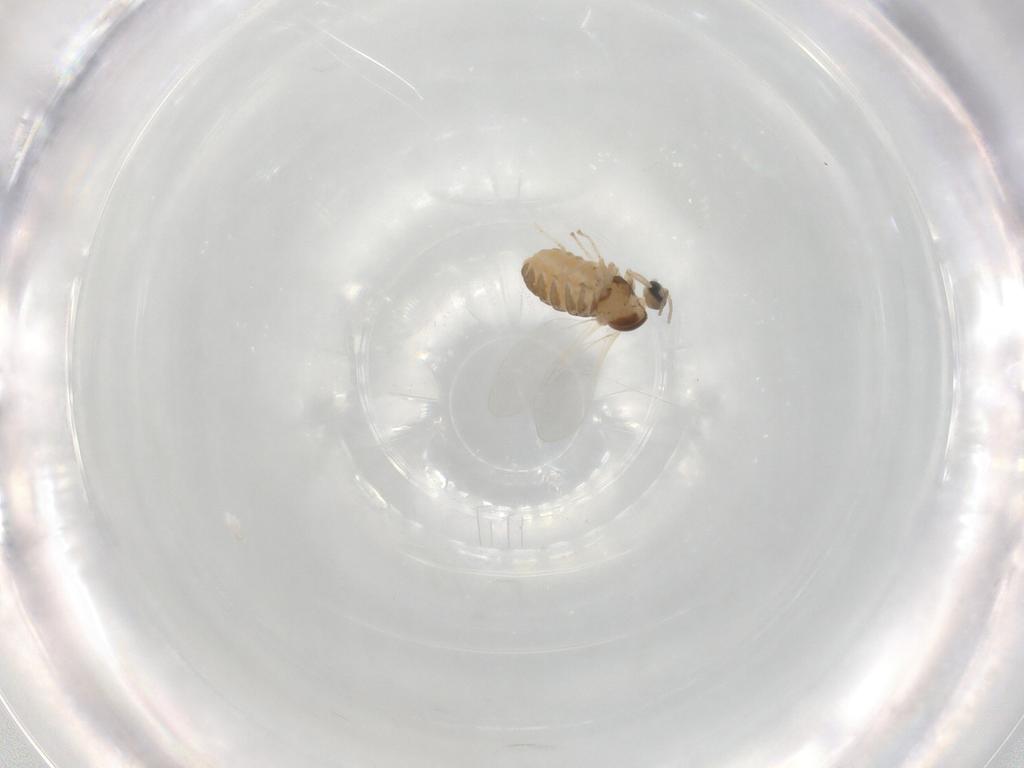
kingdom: Animalia
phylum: Arthropoda
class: Insecta
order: Diptera
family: Cecidomyiidae
